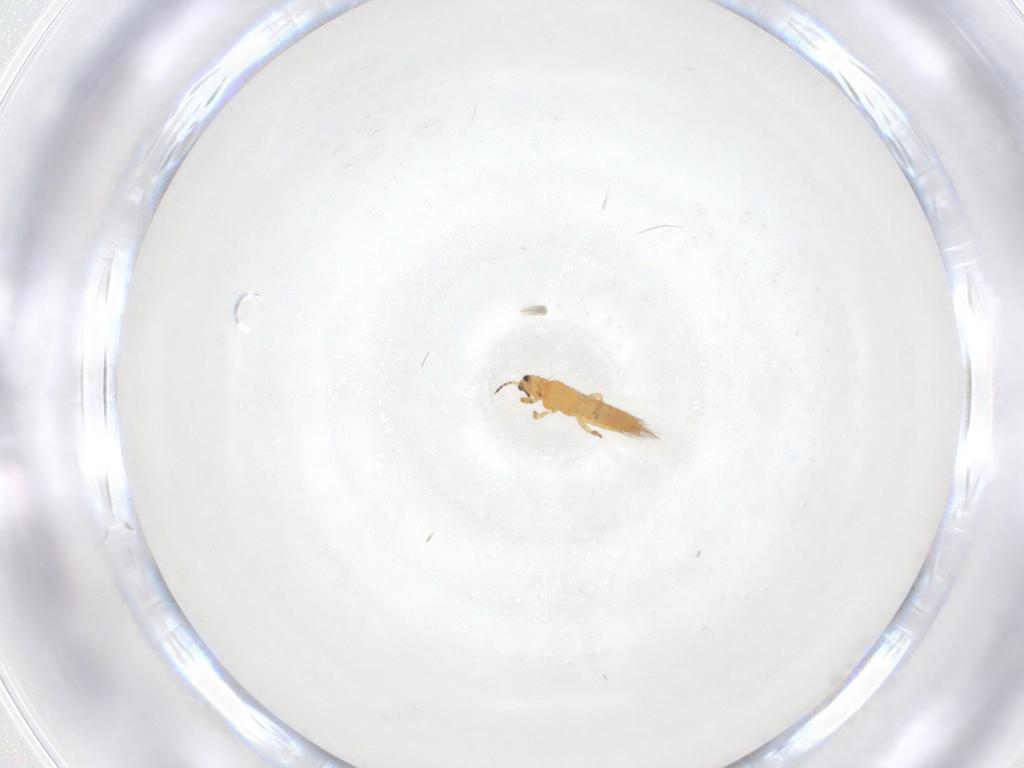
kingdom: Animalia
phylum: Arthropoda
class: Insecta
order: Thysanoptera
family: Thripidae
